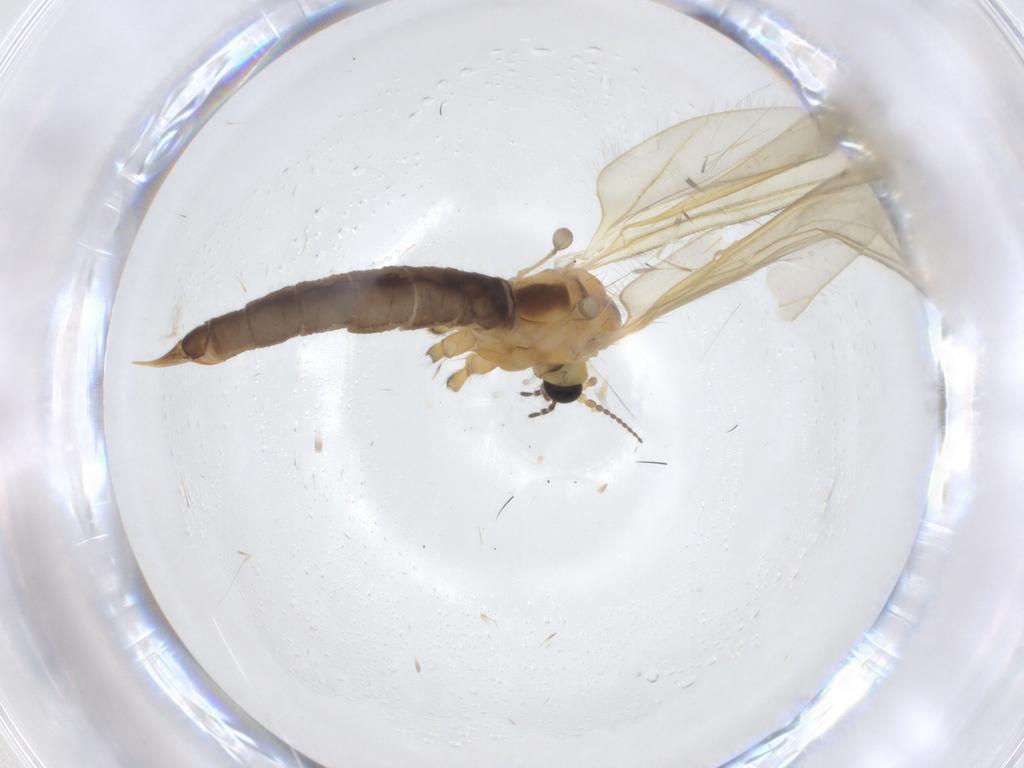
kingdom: Animalia
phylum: Arthropoda
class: Insecta
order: Diptera
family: Limoniidae
